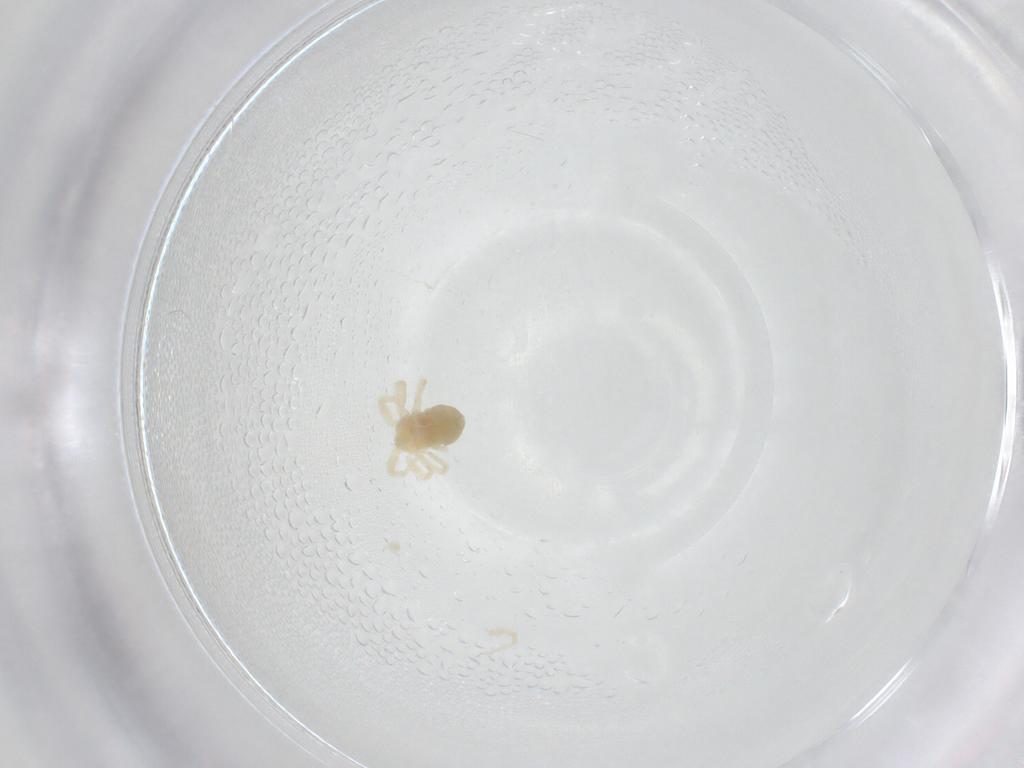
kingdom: Animalia
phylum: Arthropoda
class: Arachnida
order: Trombidiformes
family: Anystidae
